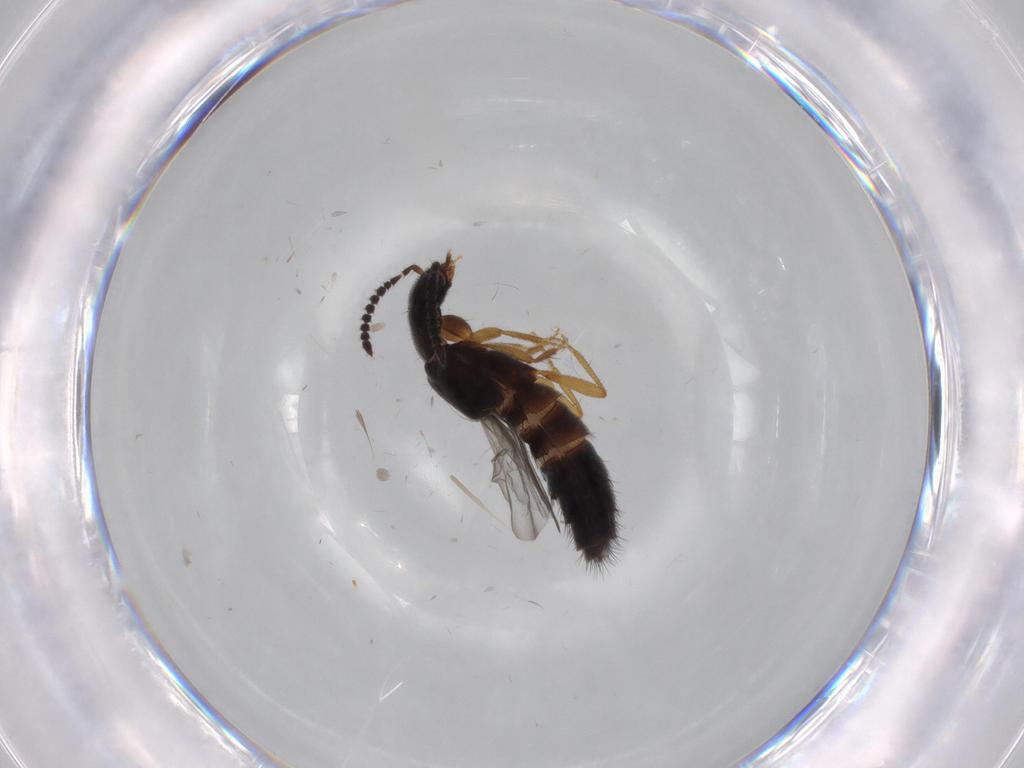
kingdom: Animalia
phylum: Arthropoda
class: Insecta
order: Coleoptera
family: Staphylinidae
